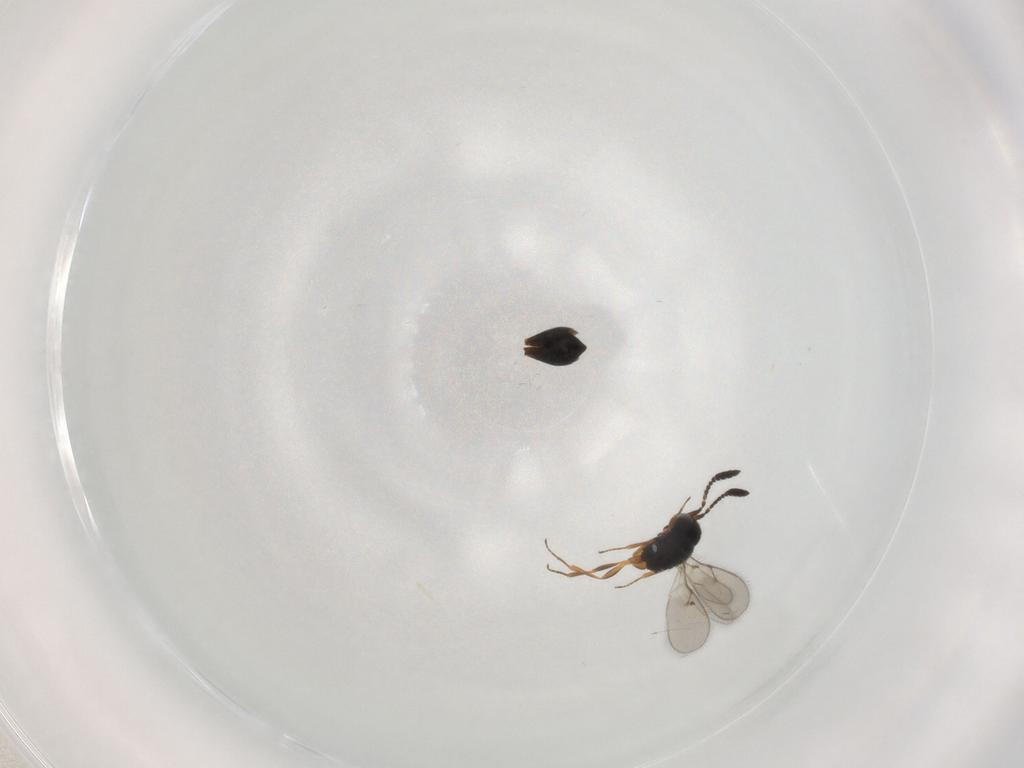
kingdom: Animalia
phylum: Arthropoda
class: Insecta
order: Hymenoptera
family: Scelionidae
